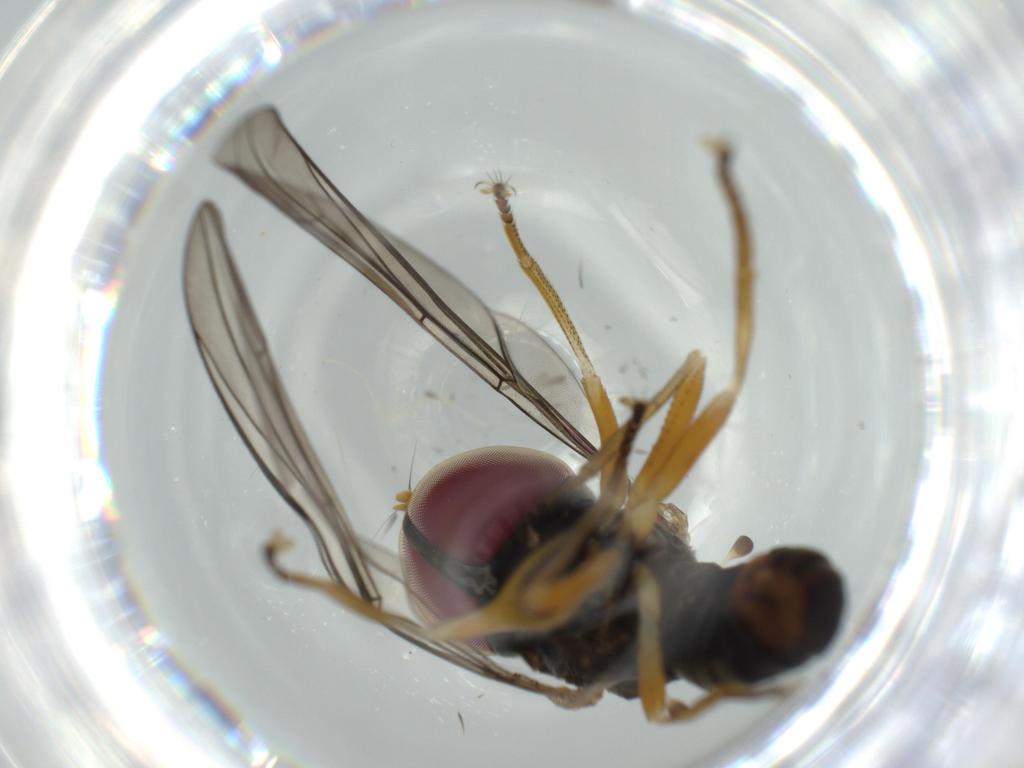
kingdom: Animalia
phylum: Arthropoda
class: Insecta
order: Diptera
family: Pipunculidae
